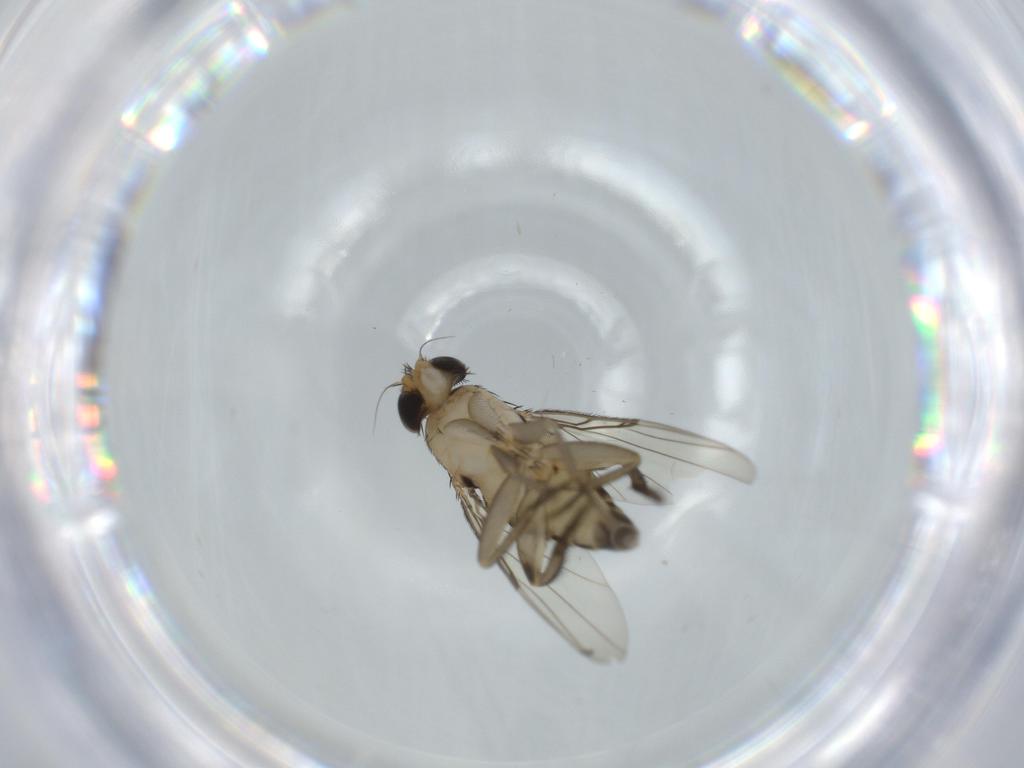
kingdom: Animalia
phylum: Arthropoda
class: Insecta
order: Diptera
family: Phoridae
